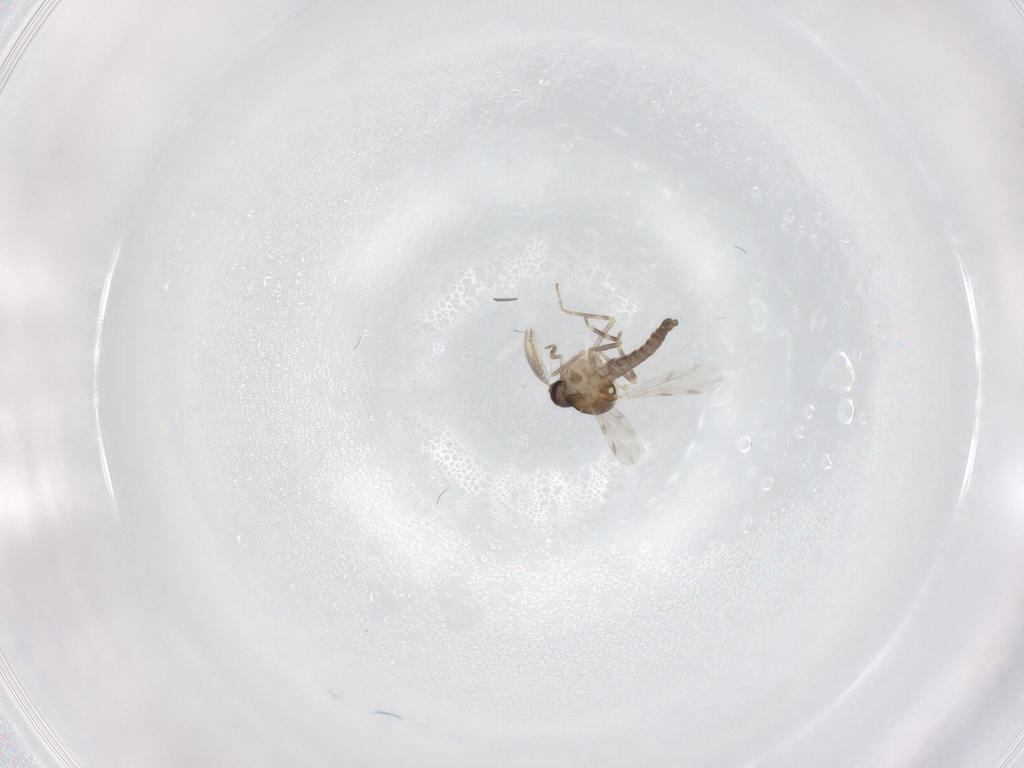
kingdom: Animalia
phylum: Arthropoda
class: Insecta
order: Diptera
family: Ceratopogonidae
